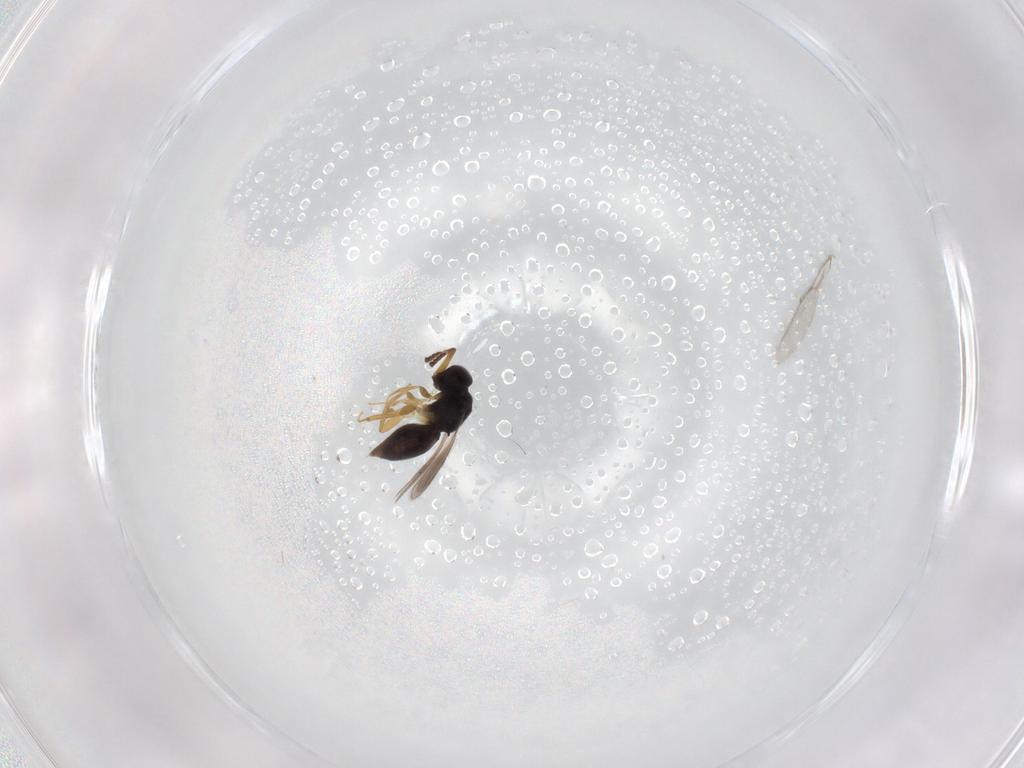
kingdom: Animalia
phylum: Arthropoda
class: Insecta
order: Hymenoptera
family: Ceraphronidae
